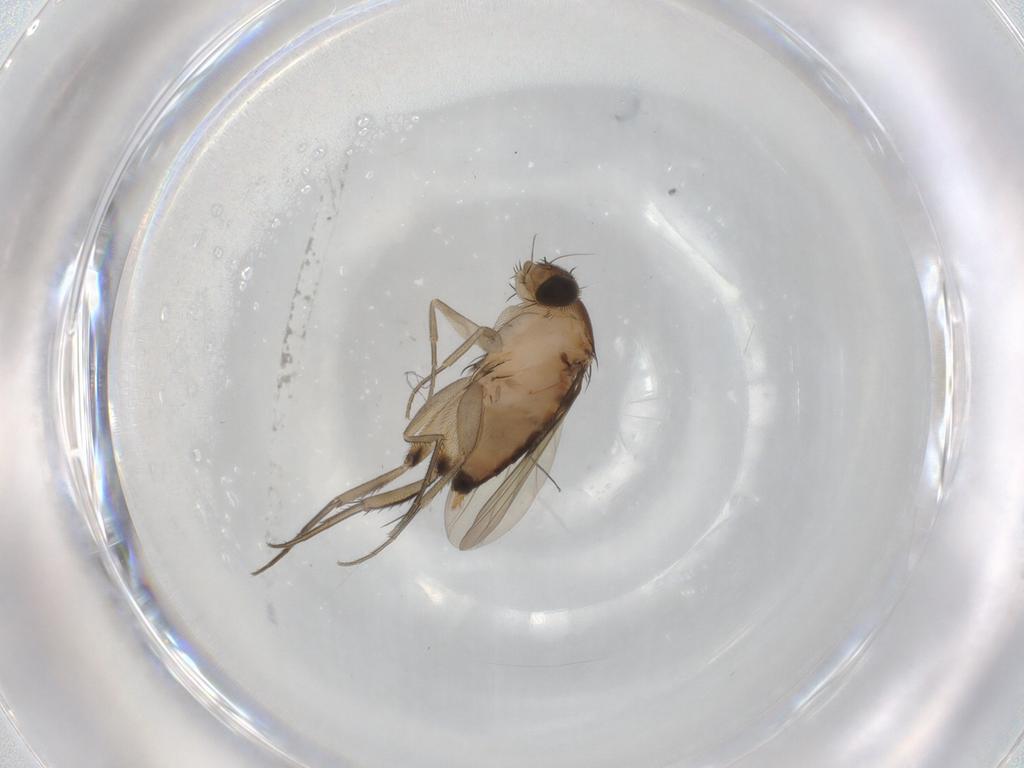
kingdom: Animalia
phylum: Arthropoda
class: Insecta
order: Diptera
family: Cecidomyiidae
